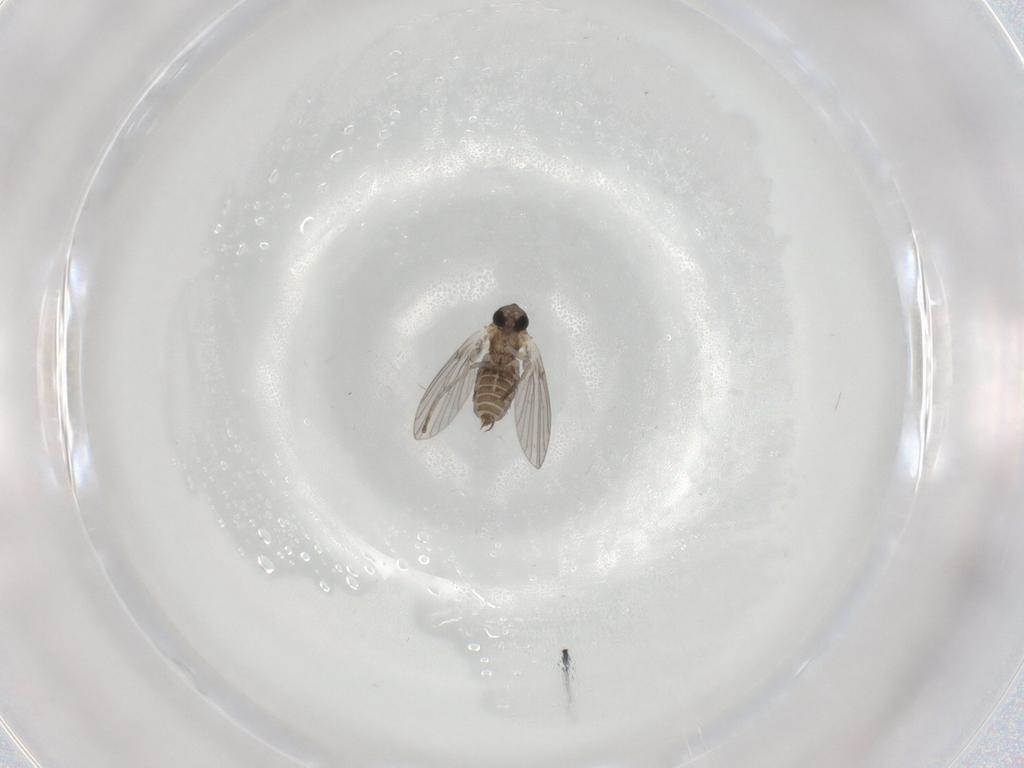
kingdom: Animalia
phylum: Arthropoda
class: Insecta
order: Diptera
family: Psychodidae
